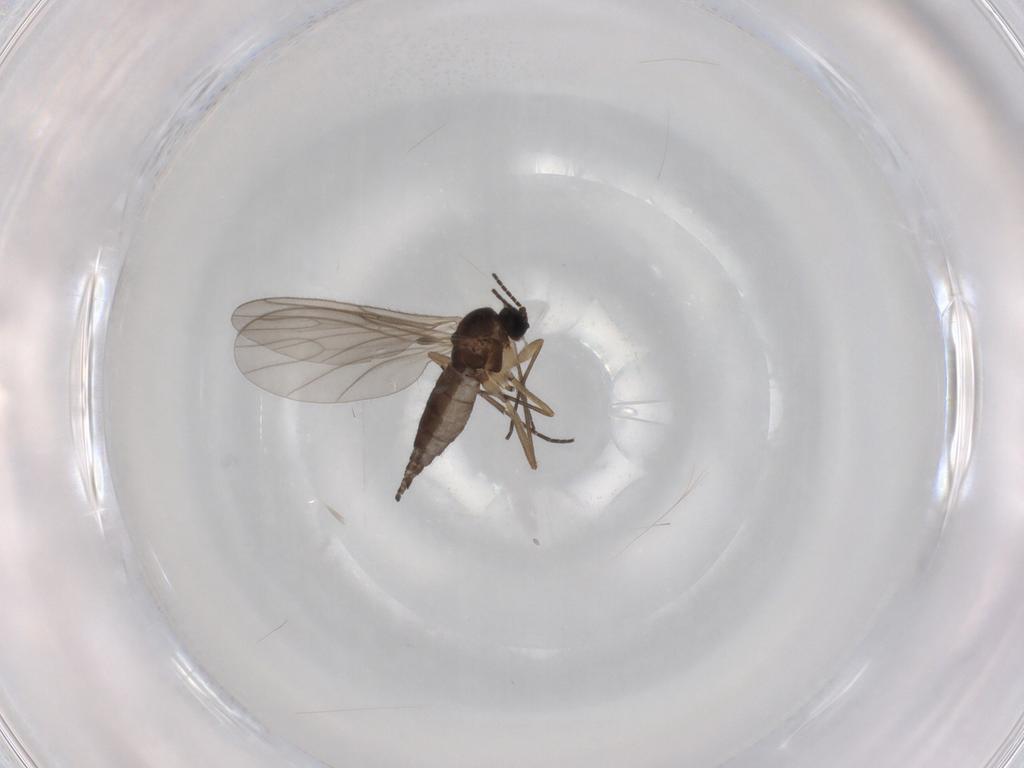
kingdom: Animalia
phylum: Arthropoda
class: Insecta
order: Diptera
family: Sciaridae
